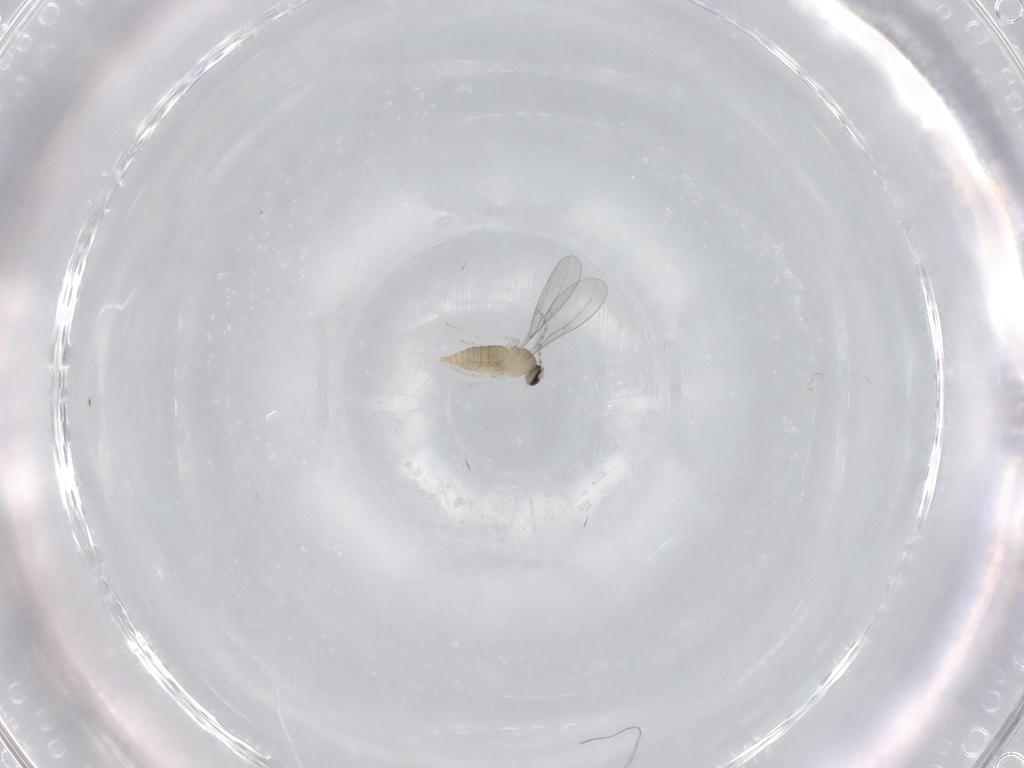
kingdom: Animalia
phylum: Arthropoda
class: Insecta
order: Diptera
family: Cecidomyiidae
